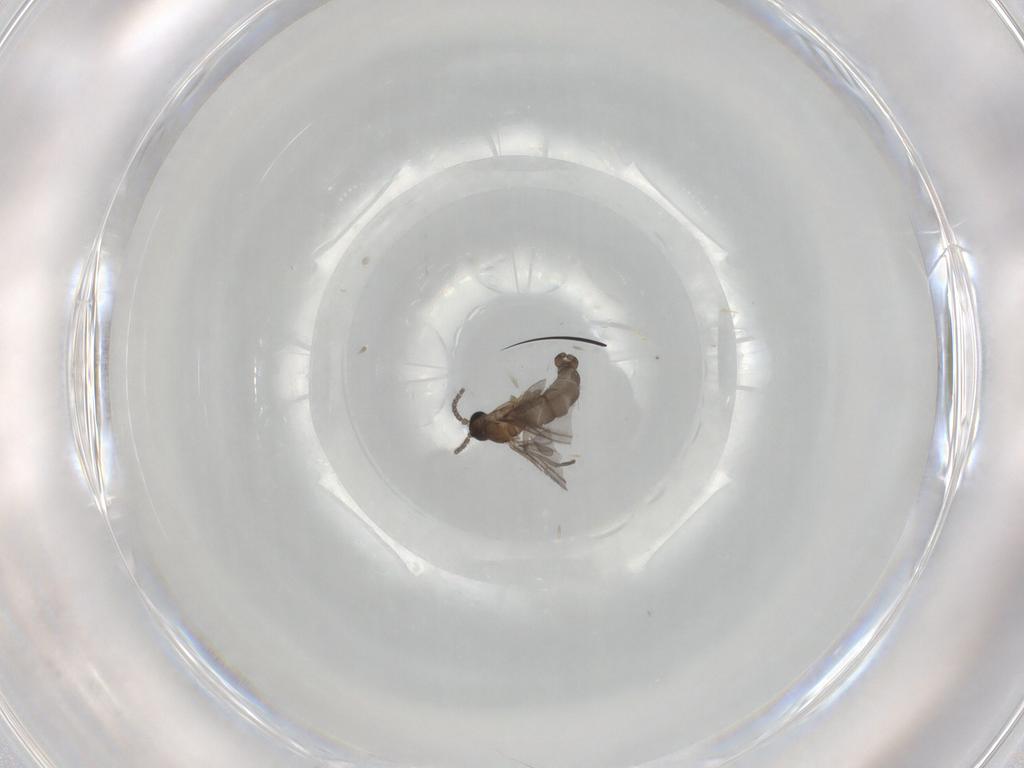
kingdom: Animalia
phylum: Arthropoda
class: Insecta
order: Diptera
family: Sciaridae
